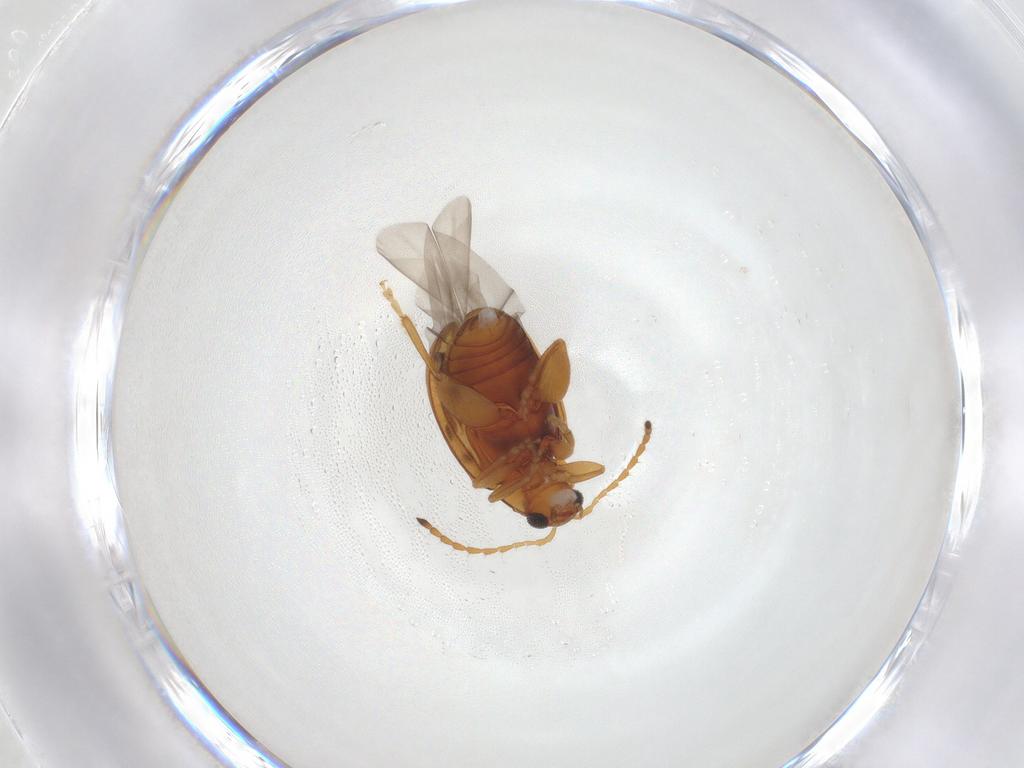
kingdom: Animalia
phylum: Arthropoda
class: Insecta
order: Coleoptera
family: Chrysomelidae
